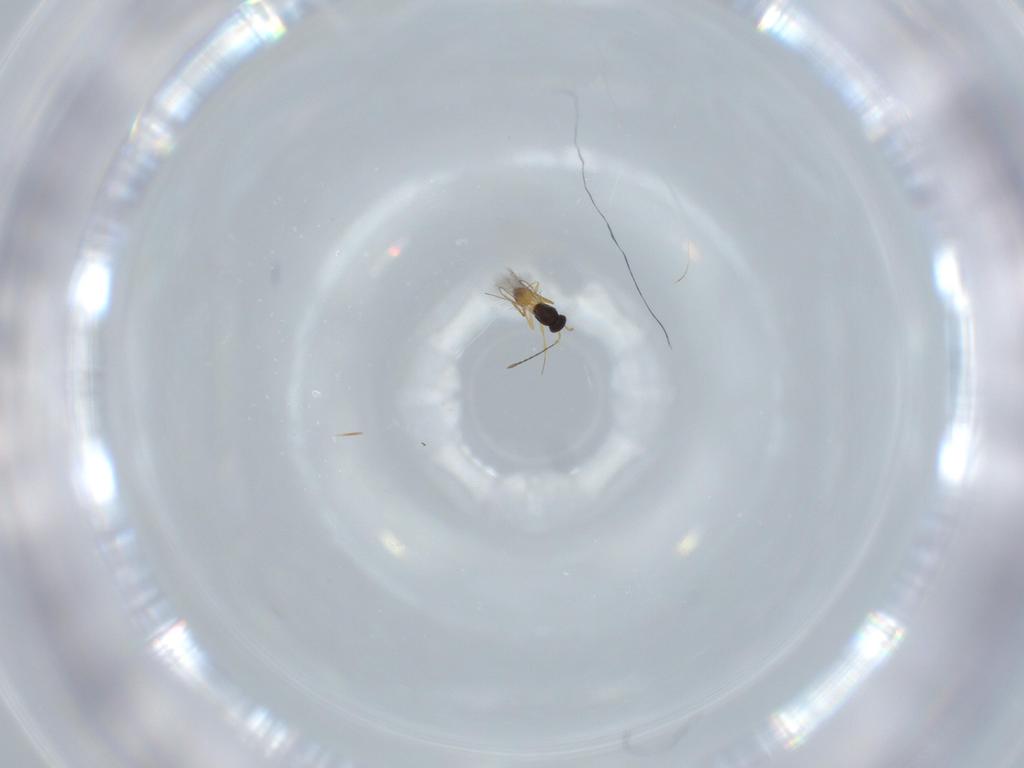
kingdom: Animalia
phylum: Arthropoda
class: Insecta
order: Hymenoptera
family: Mymaridae
